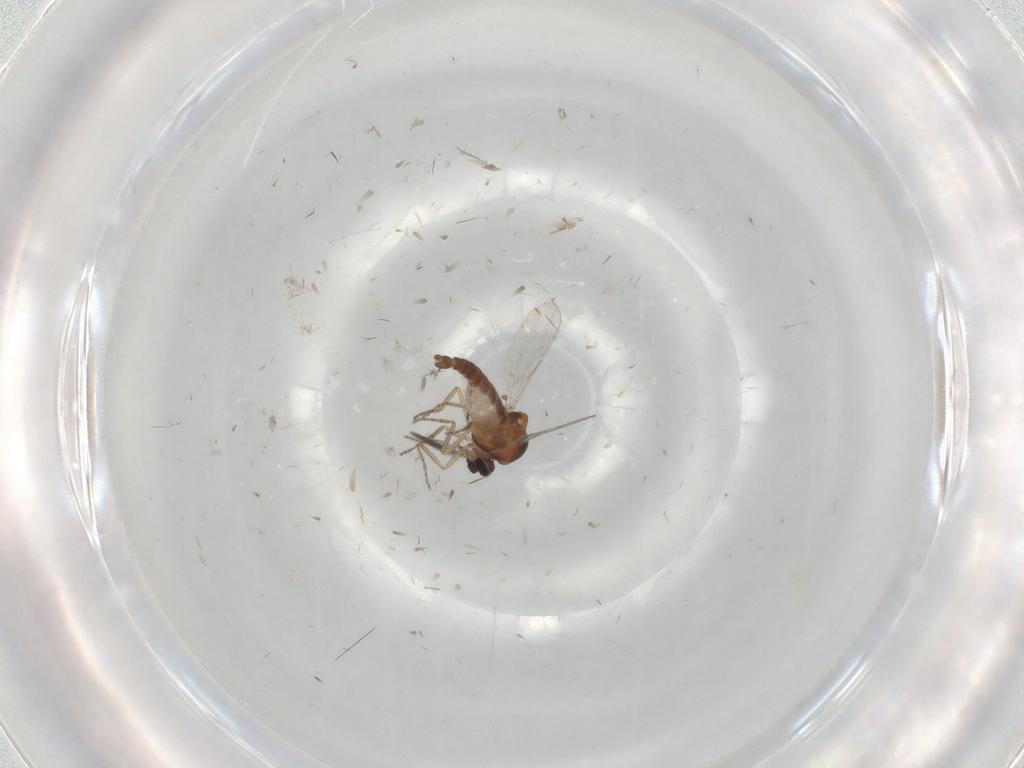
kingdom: Animalia
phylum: Arthropoda
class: Insecta
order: Diptera
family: Ceratopogonidae
